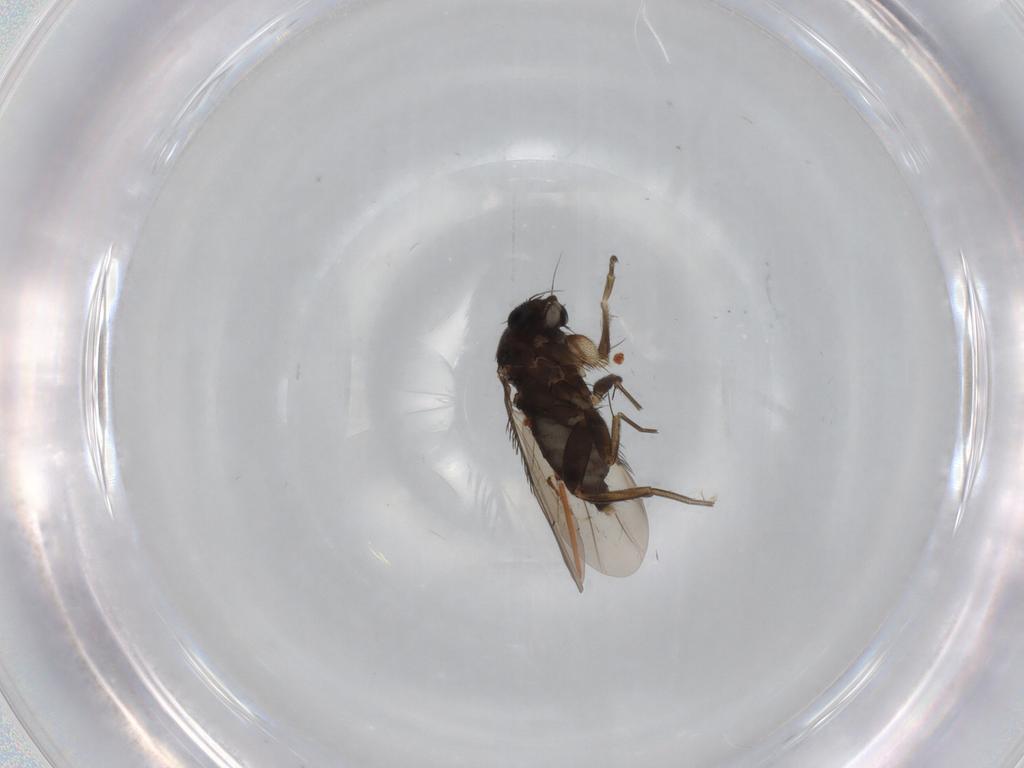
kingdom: Animalia
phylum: Arthropoda
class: Insecta
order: Diptera
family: Phoridae
